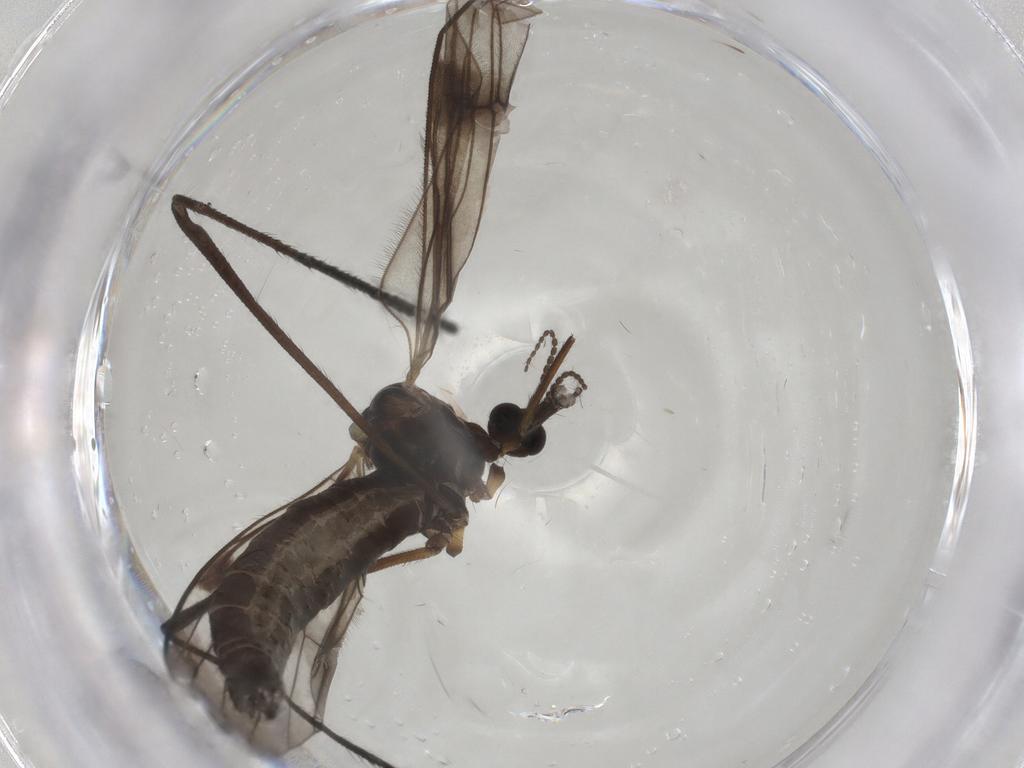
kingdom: Animalia
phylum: Arthropoda
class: Insecta
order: Diptera
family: Limoniidae
